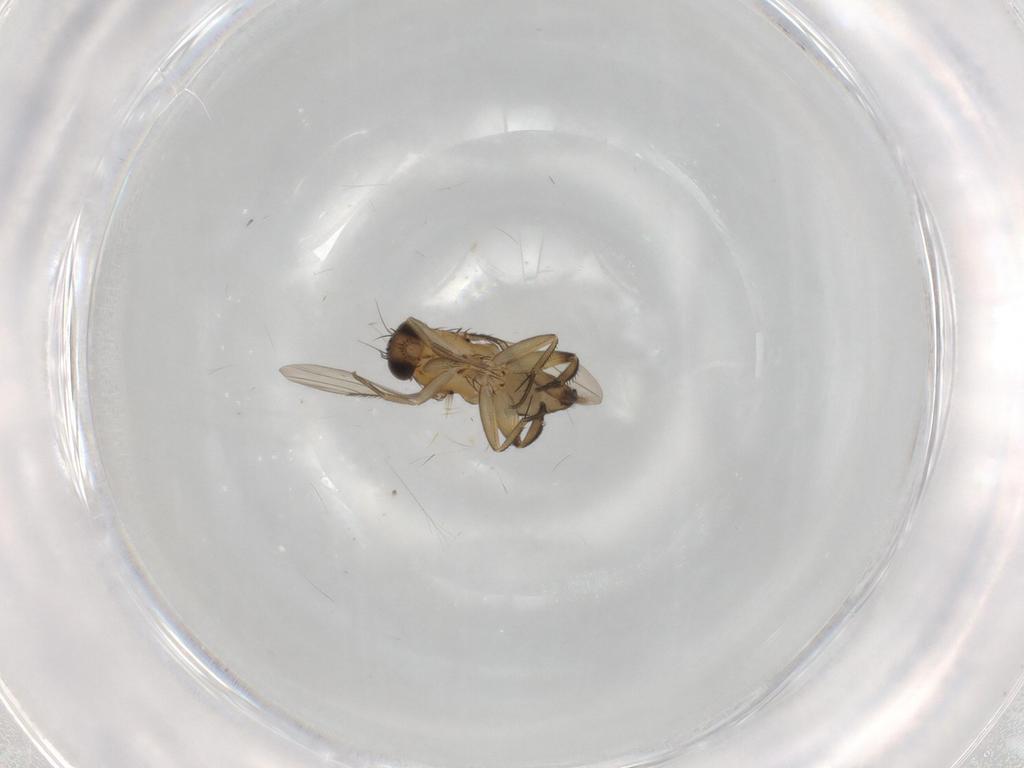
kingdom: Animalia
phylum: Arthropoda
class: Insecta
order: Diptera
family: Phoridae
